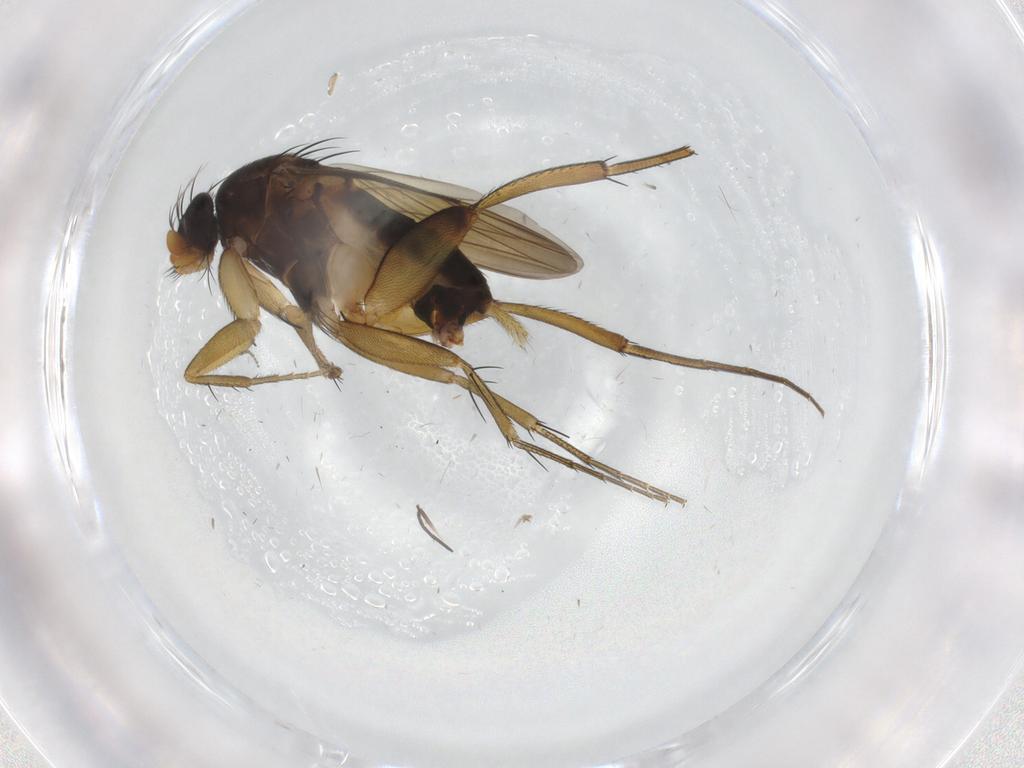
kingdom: Animalia
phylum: Arthropoda
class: Insecta
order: Diptera
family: Phoridae
